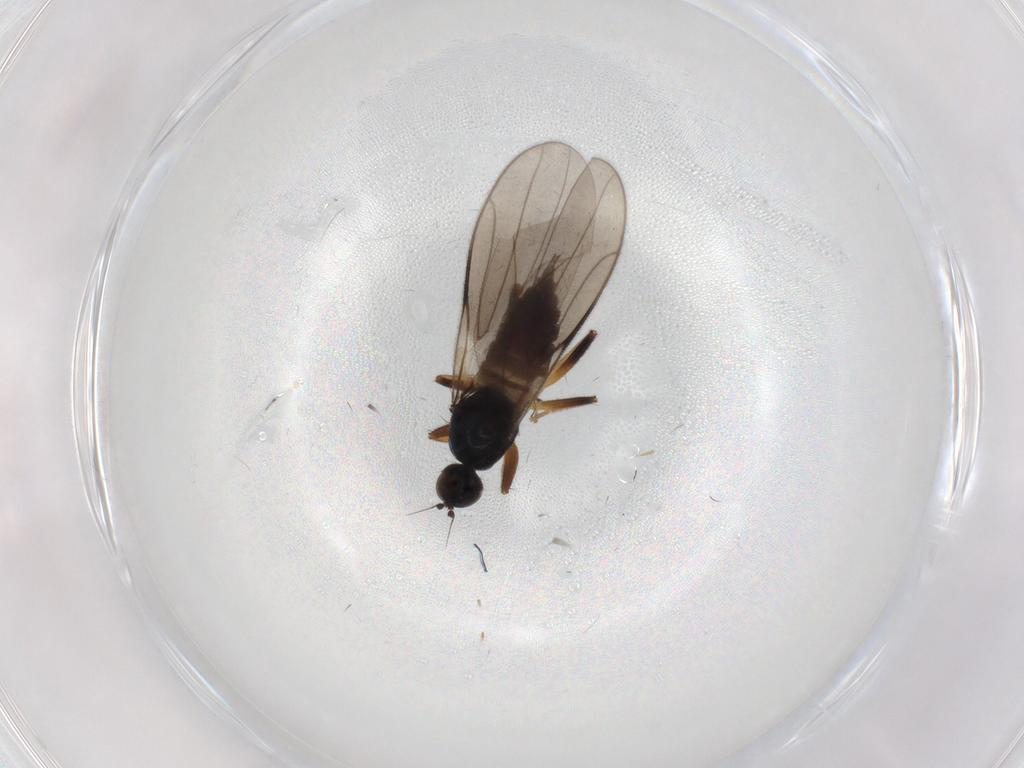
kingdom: Animalia
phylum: Arthropoda
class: Insecta
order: Diptera
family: Hybotidae
